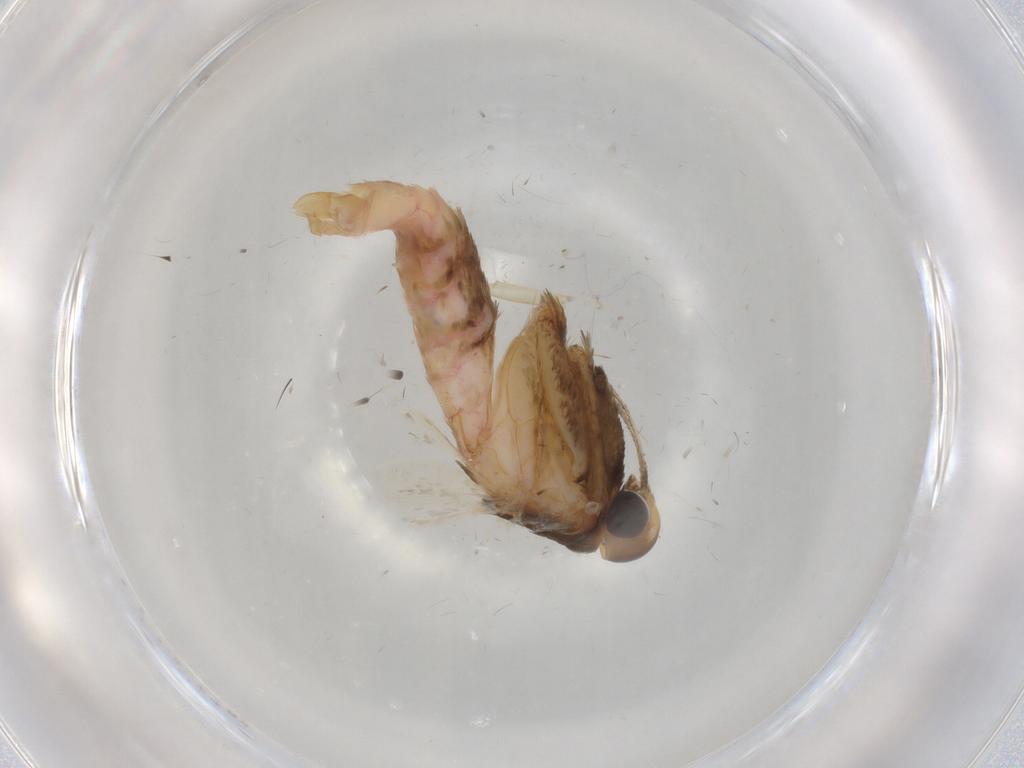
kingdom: Animalia
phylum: Arthropoda
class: Insecta
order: Lepidoptera
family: Lecithoceridae
